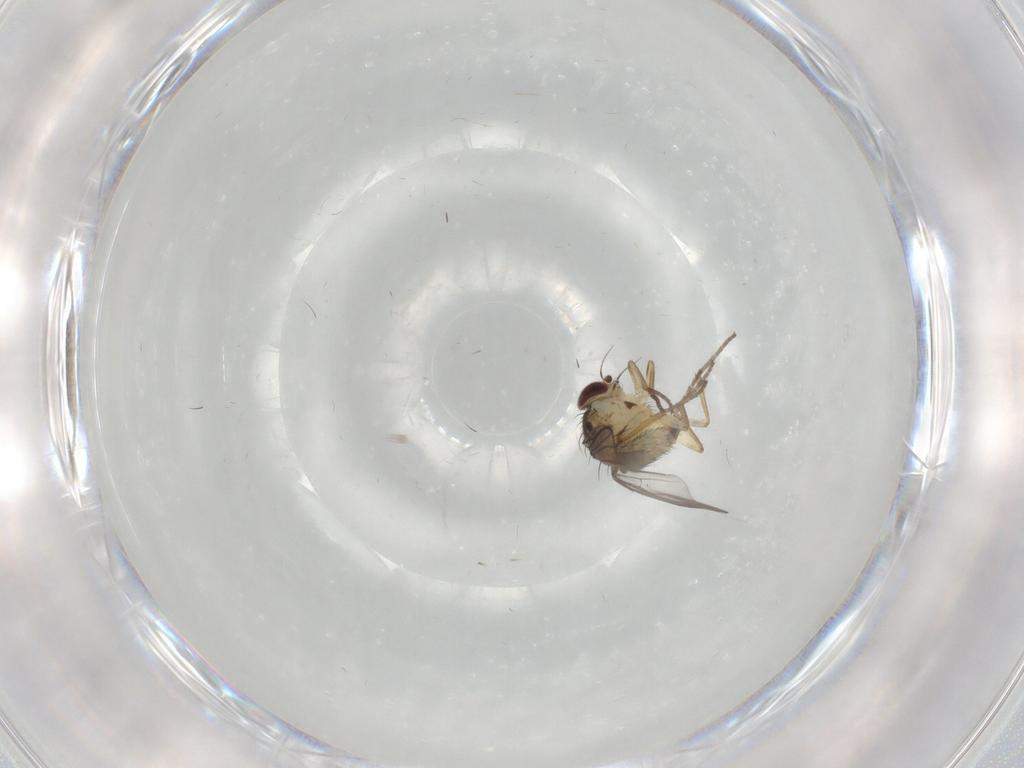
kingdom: Animalia
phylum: Arthropoda
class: Insecta
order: Diptera
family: Agromyzidae
